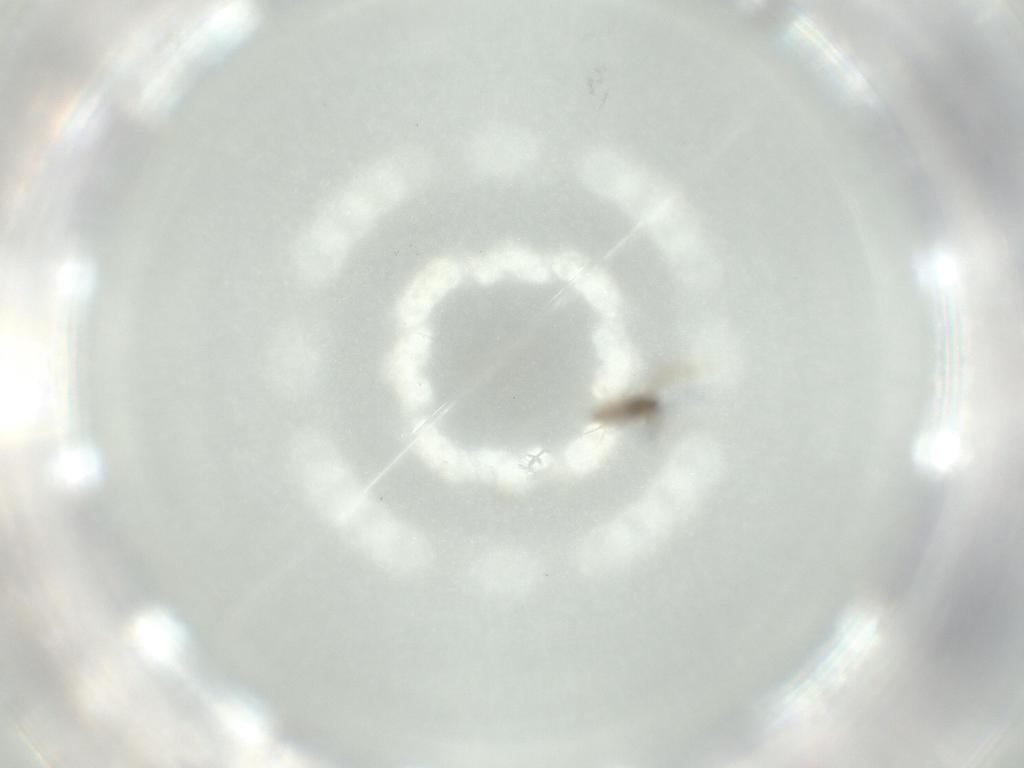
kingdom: Animalia
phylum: Arthropoda
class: Insecta
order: Diptera
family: Cecidomyiidae
